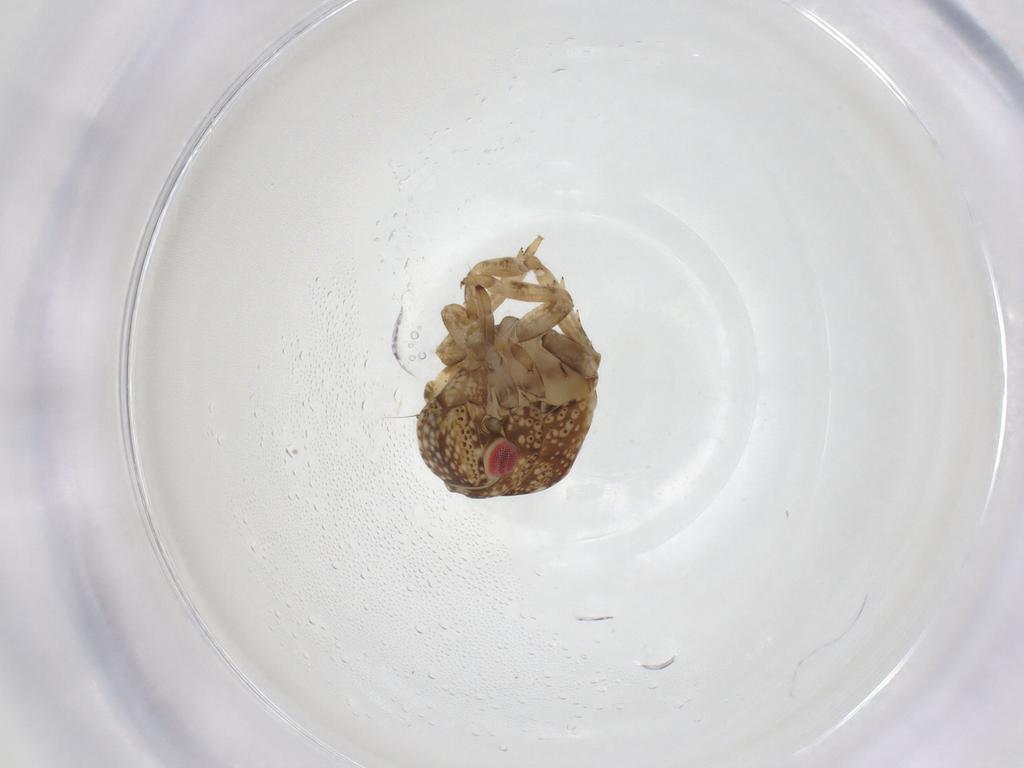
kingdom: Animalia
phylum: Arthropoda
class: Insecta
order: Hemiptera
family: Acanaloniidae
